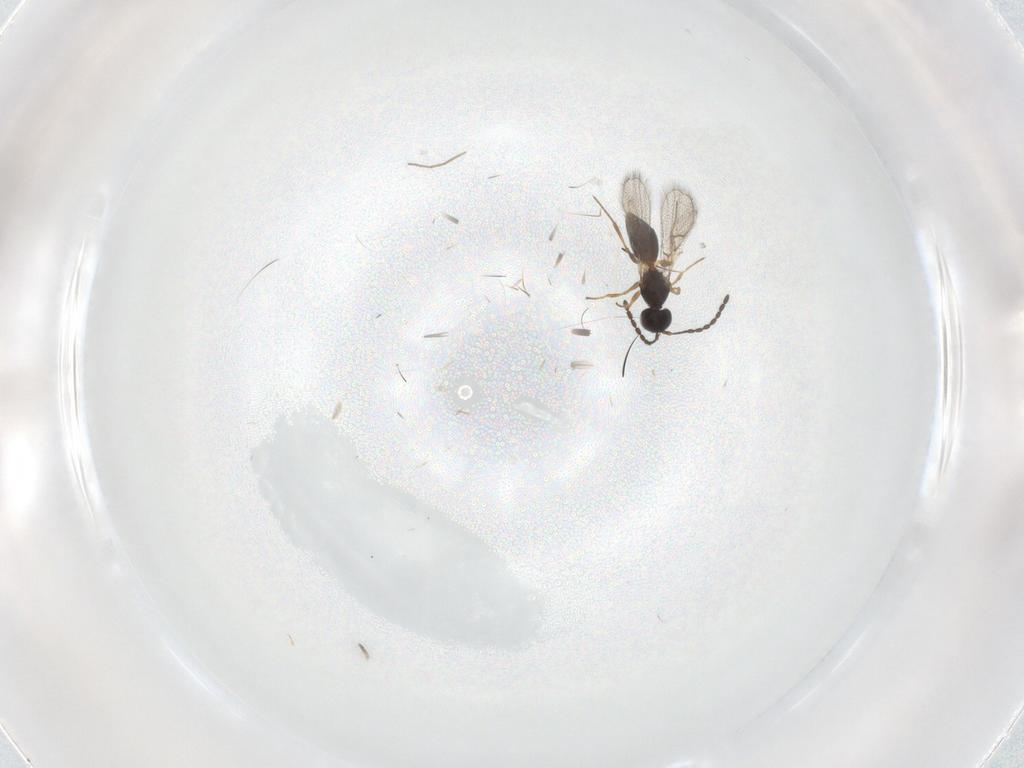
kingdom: Animalia
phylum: Arthropoda
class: Insecta
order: Hymenoptera
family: Figitidae
